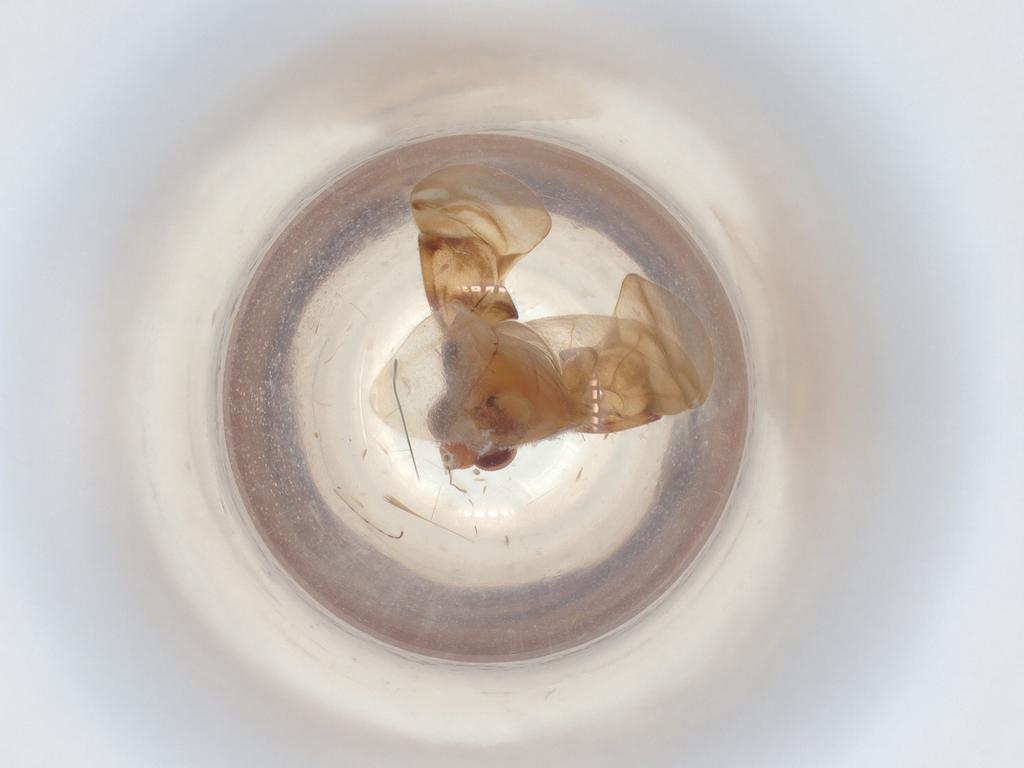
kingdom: Animalia
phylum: Arthropoda
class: Insecta
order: Hemiptera
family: Miridae
